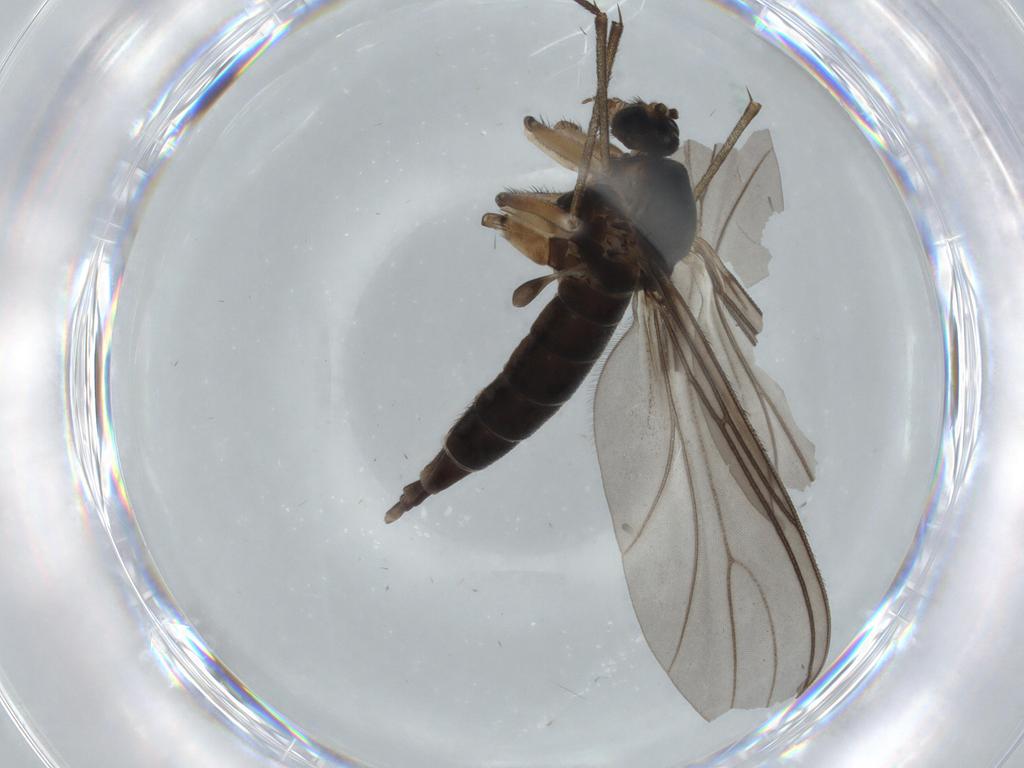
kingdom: Animalia
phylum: Arthropoda
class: Insecta
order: Diptera
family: Sciaridae
